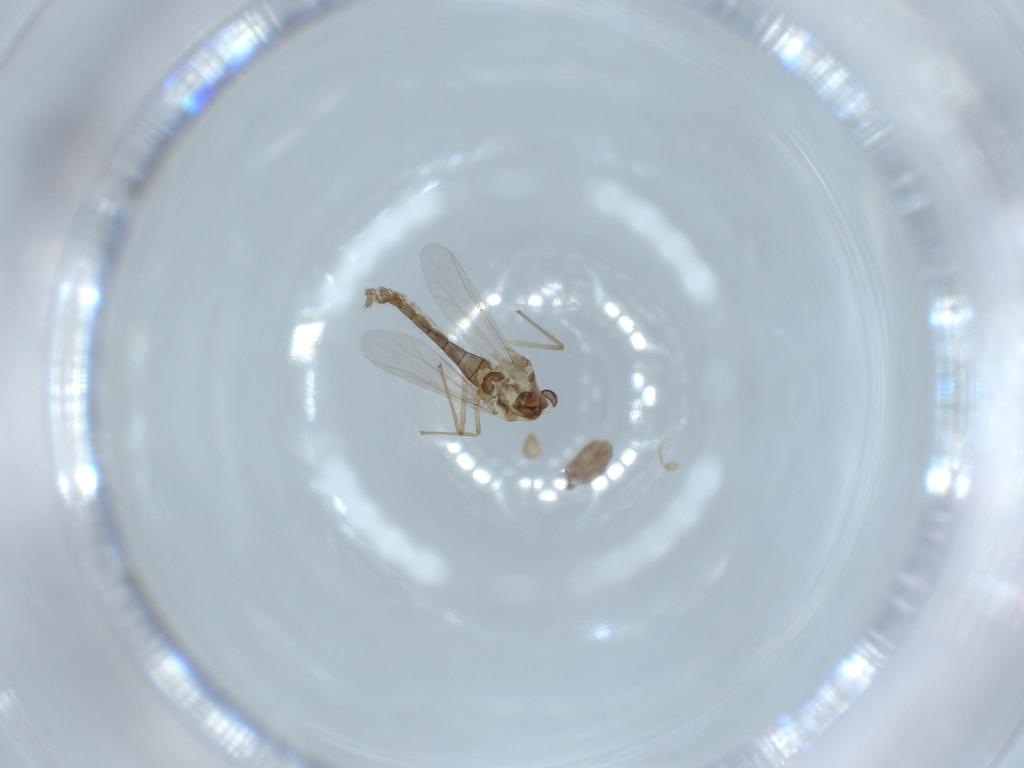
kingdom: Animalia
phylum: Arthropoda
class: Insecta
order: Diptera
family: Chironomidae
